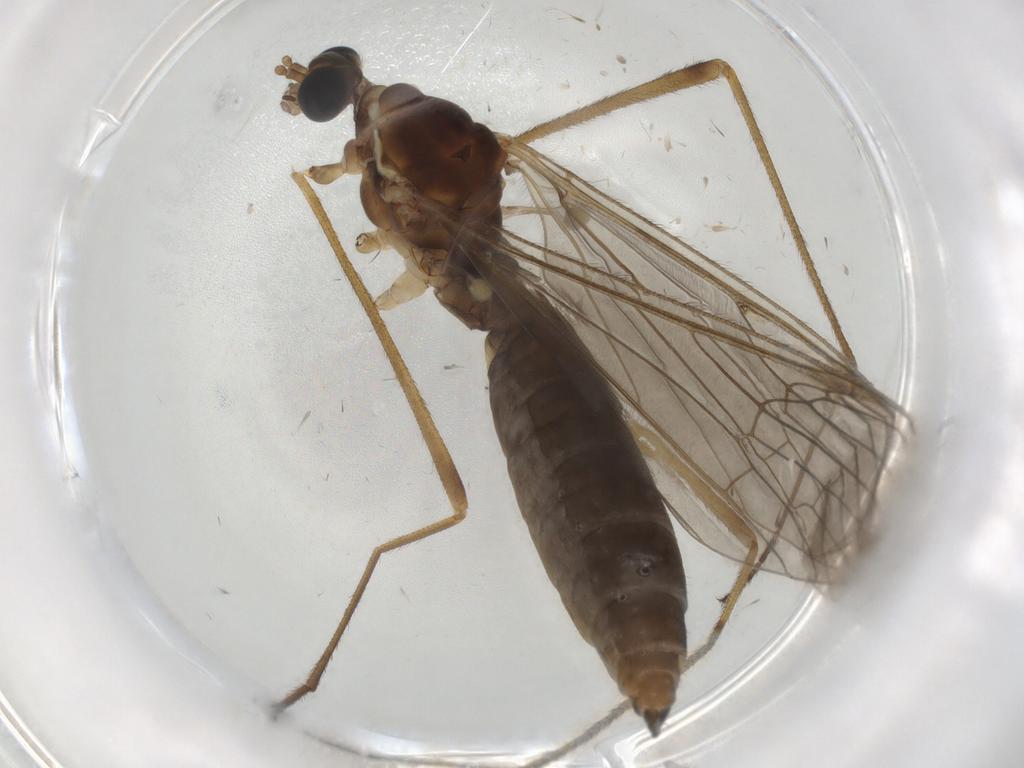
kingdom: Animalia
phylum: Arthropoda
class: Insecta
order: Diptera
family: Limoniidae
